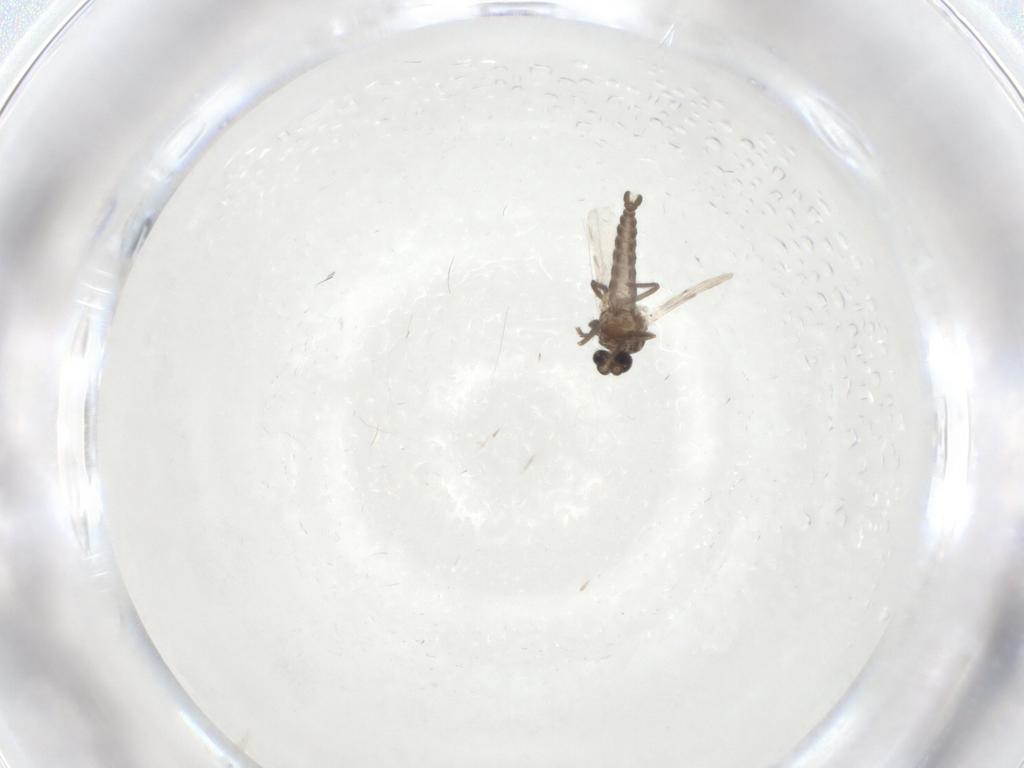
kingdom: Animalia
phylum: Arthropoda
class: Insecta
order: Diptera
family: Ceratopogonidae
